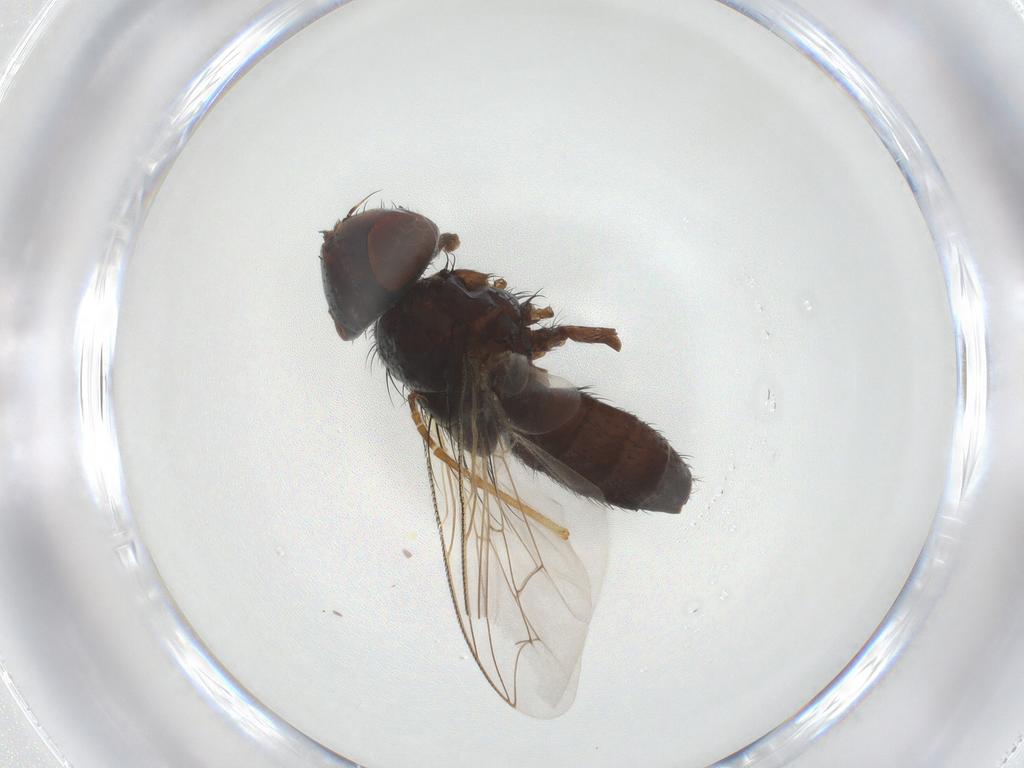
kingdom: Animalia
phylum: Arthropoda
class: Insecta
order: Diptera
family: Sarcophagidae
